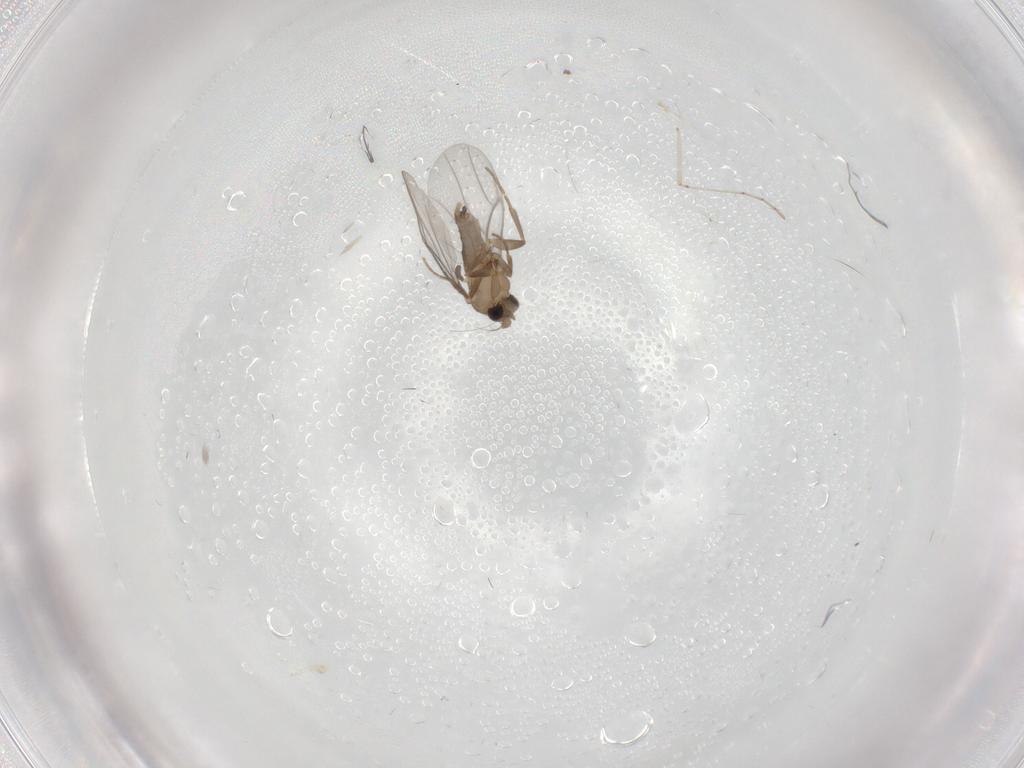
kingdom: Animalia
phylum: Arthropoda
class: Insecta
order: Diptera
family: Cecidomyiidae
